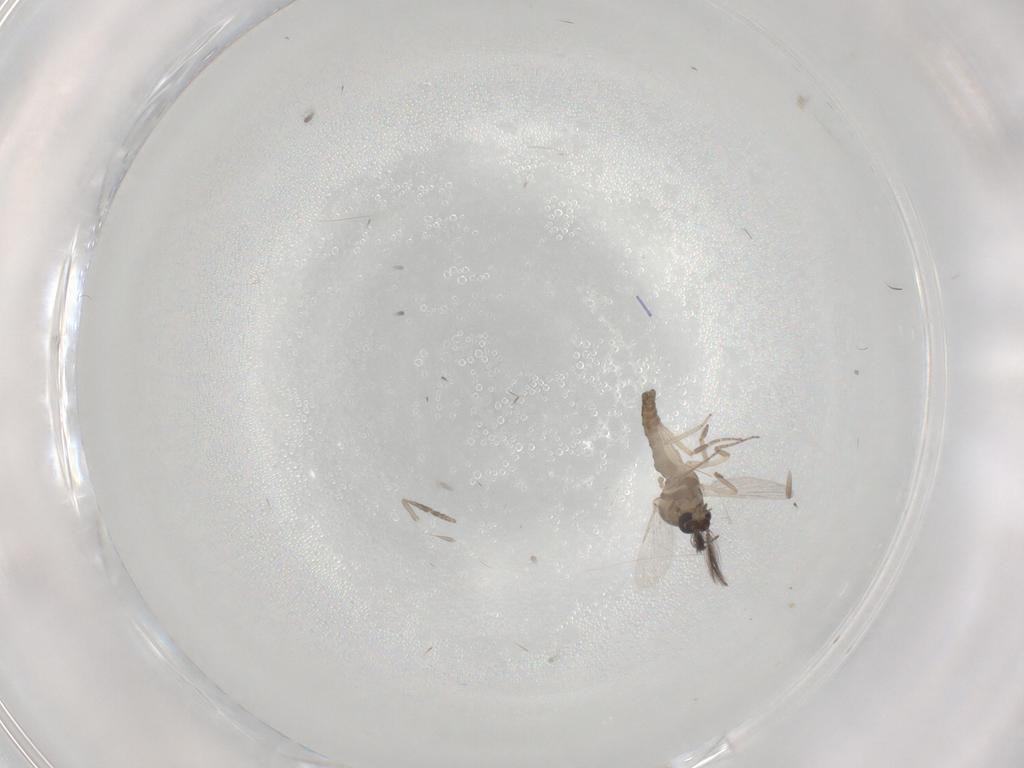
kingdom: Animalia
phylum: Arthropoda
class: Insecta
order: Diptera
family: Ceratopogonidae
